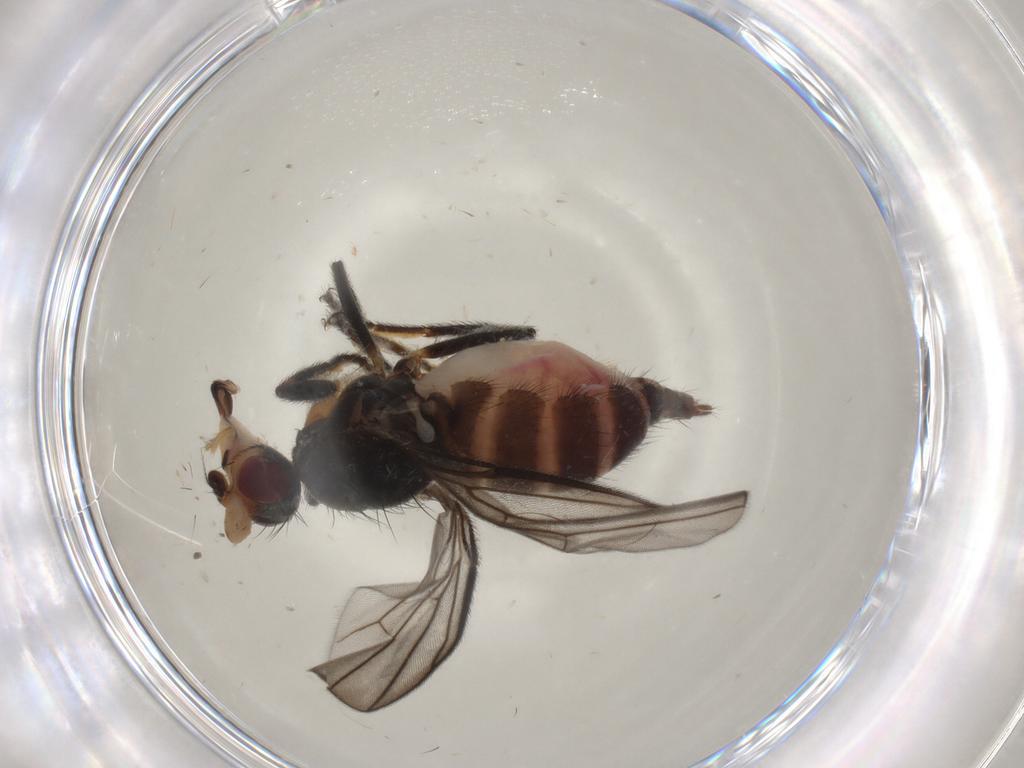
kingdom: Animalia
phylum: Arthropoda
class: Insecta
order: Diptera
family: Chloropidae
